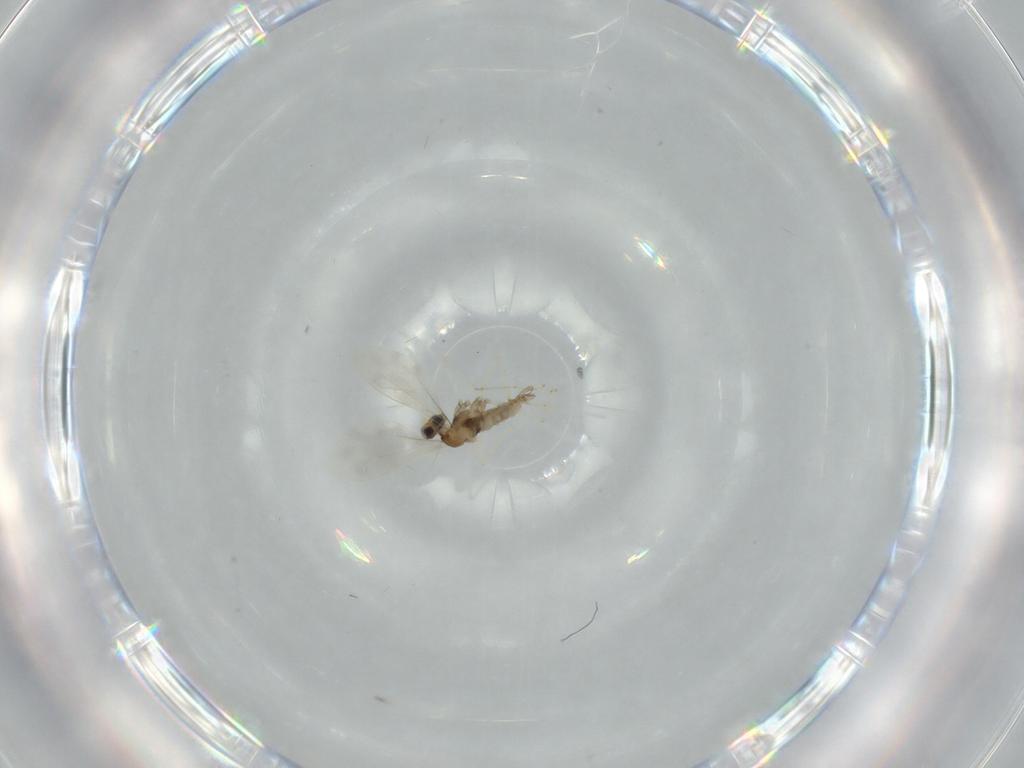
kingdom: Animalia
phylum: Arthropoda
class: Insecta
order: Diptera
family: Cecidomyiidae
